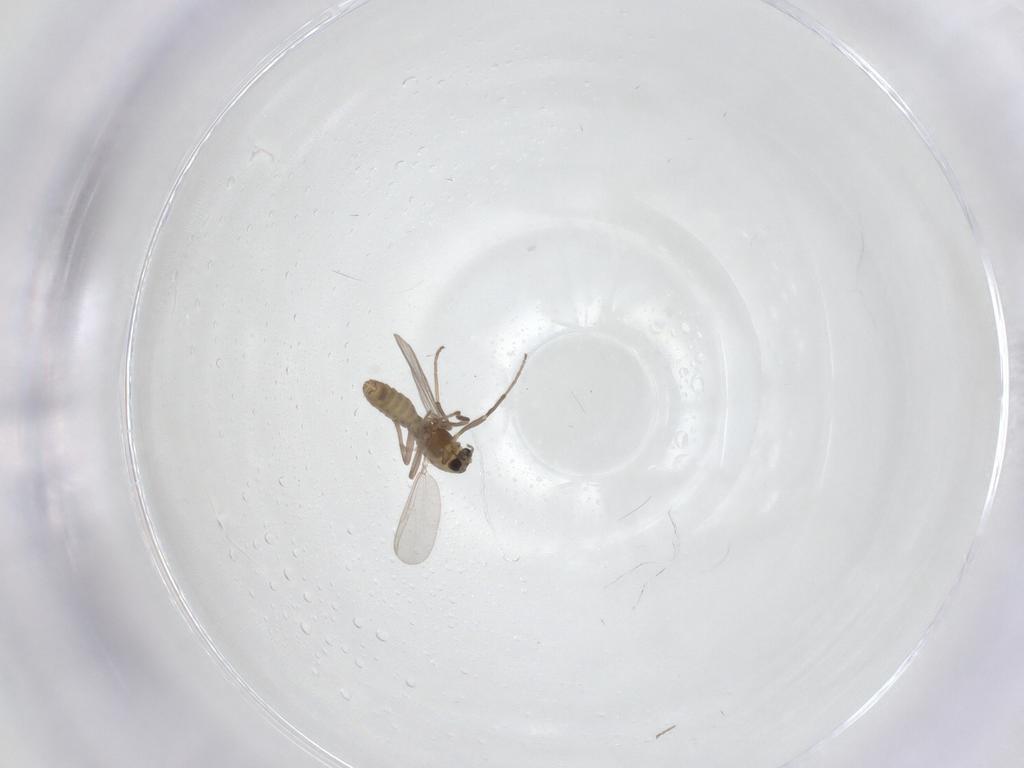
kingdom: Animalia
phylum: Arthropoda
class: Insecta
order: Diptera
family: Chironomidae
